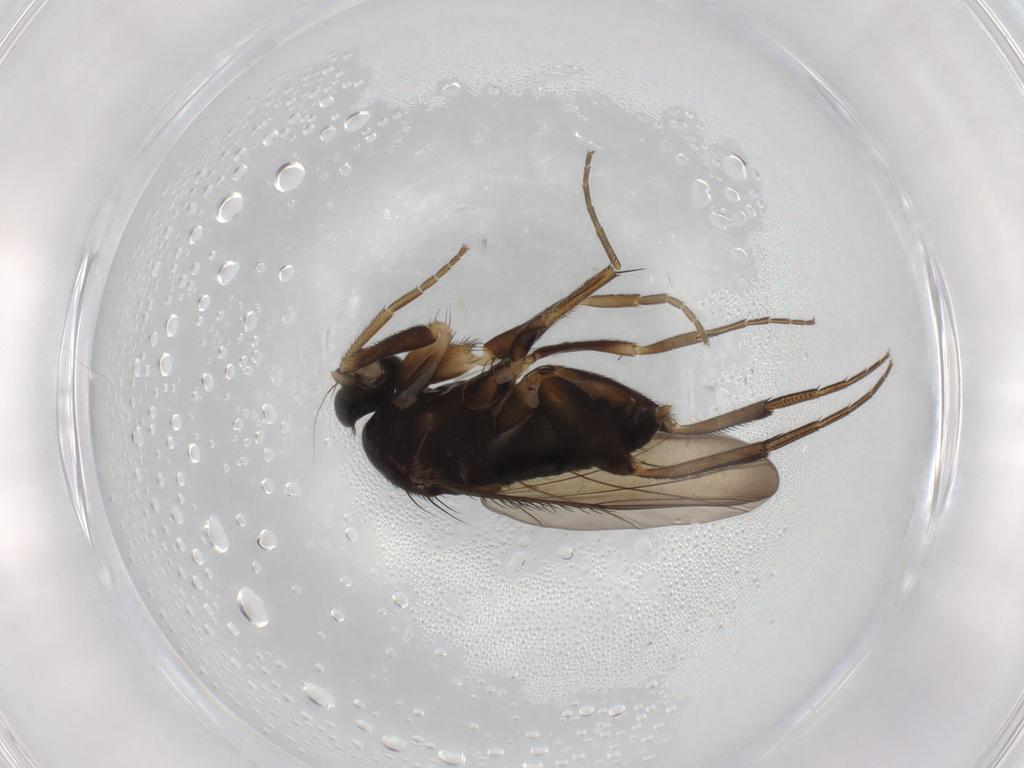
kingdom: Animalia
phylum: Arthropoda
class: Insecta
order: Diptera
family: Phoridae
